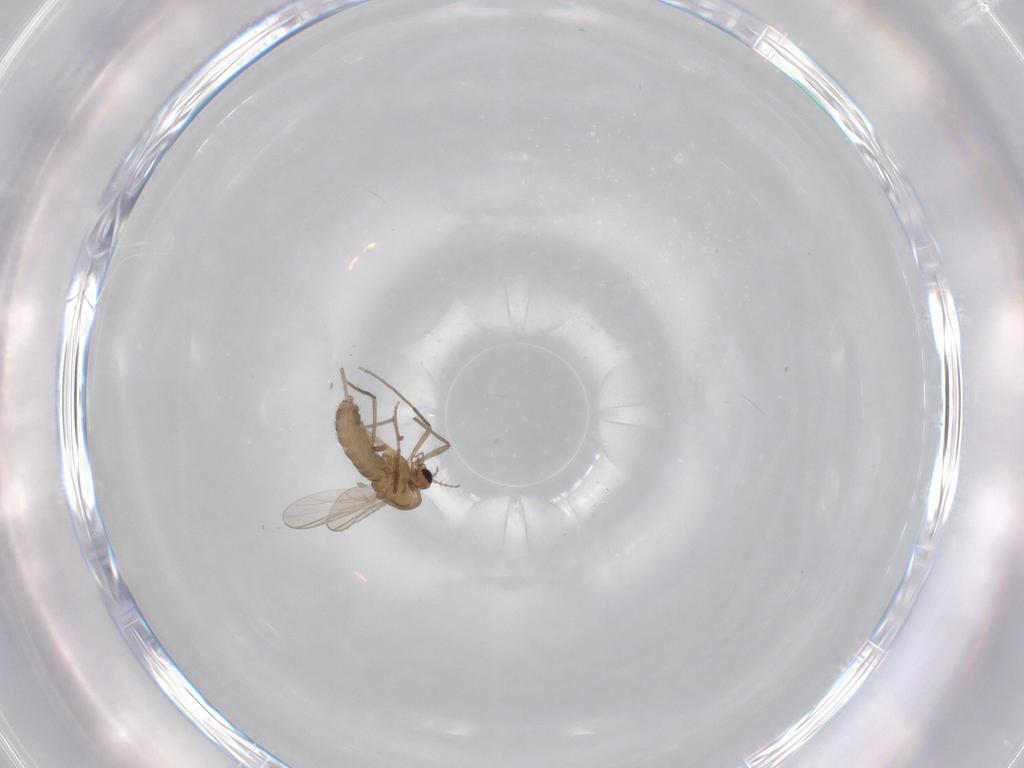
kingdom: Animalia
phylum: Arthropoda
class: Insecta
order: Diptera
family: Chironomidae
